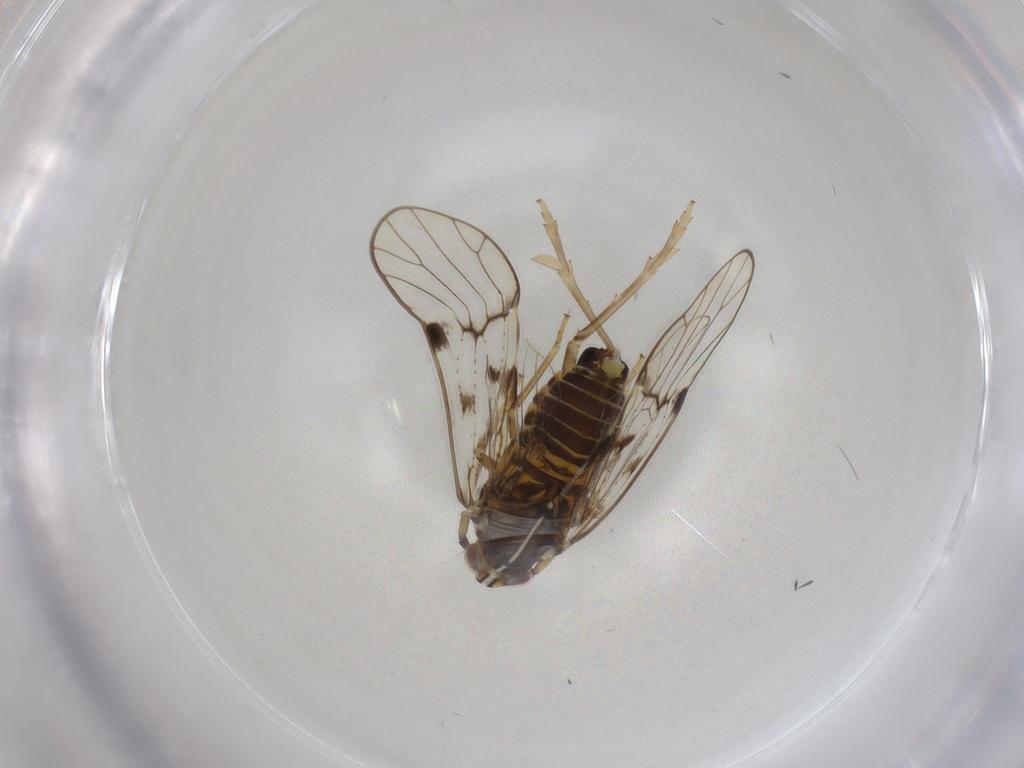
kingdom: Animalia
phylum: Arthropoda
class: Insecta
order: Hemiptera
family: Delphacidae
